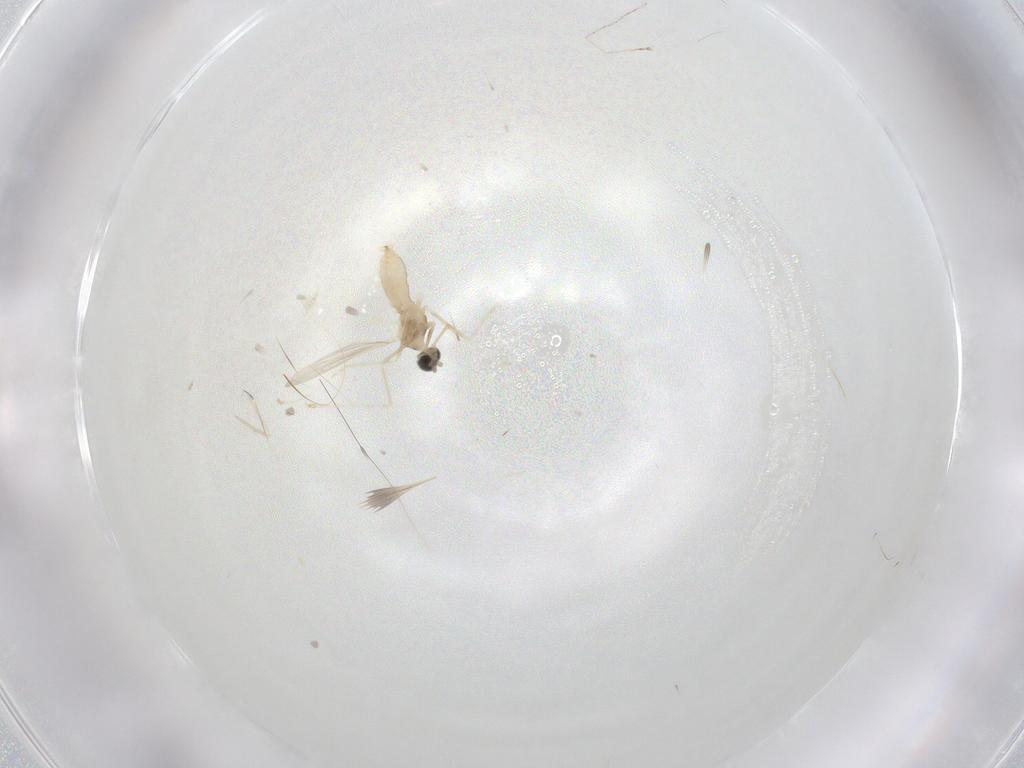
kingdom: Animalia
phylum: Arthropoda
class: Insecta
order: Diptera
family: Cecidomyiidae
